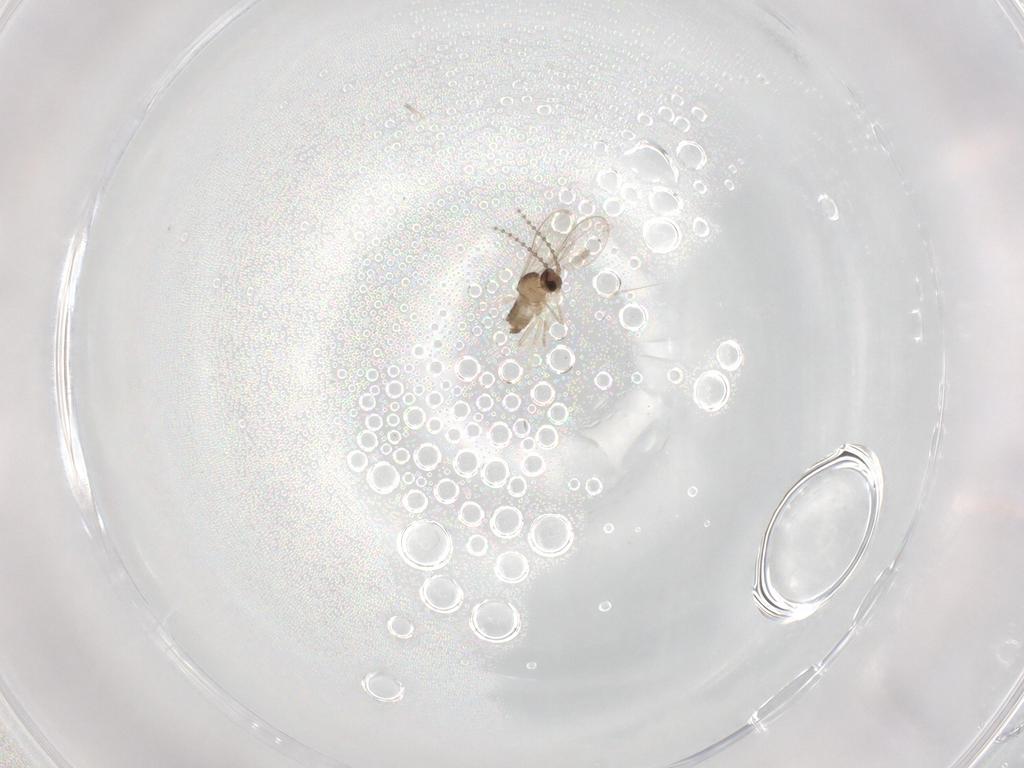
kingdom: Animalia
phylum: Arthropoda
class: Insecta
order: Diptera
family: Cecidomyiidae
